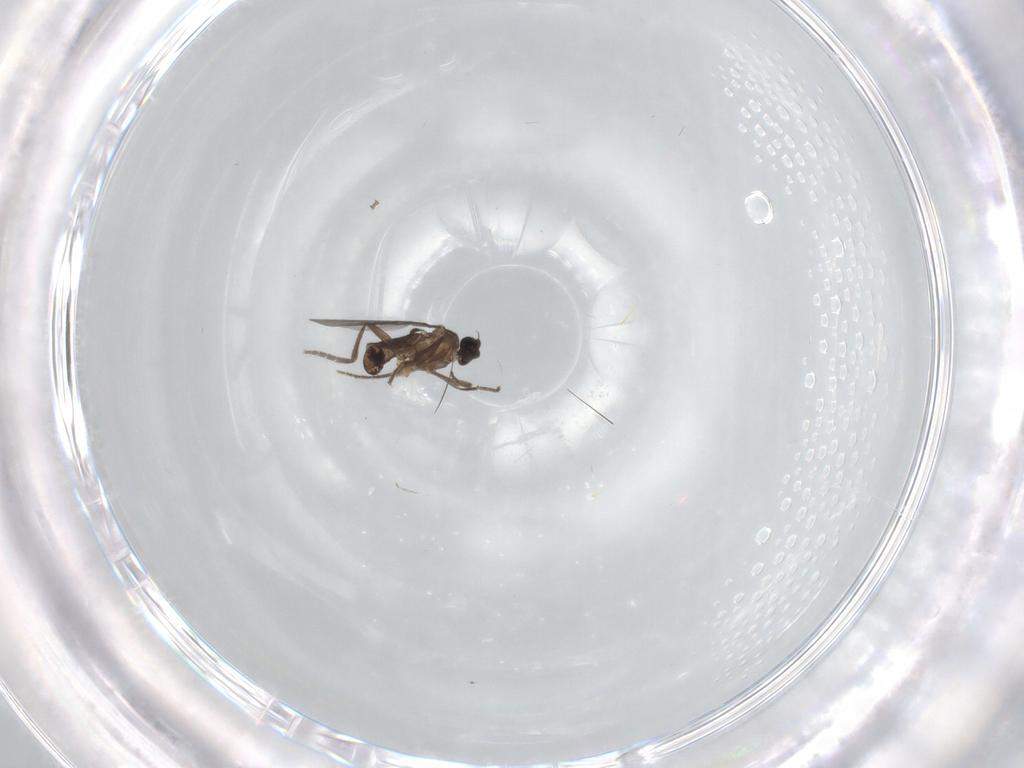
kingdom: Animalia
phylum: Arthropoda
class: Insecta
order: Diptera
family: Phoridae
